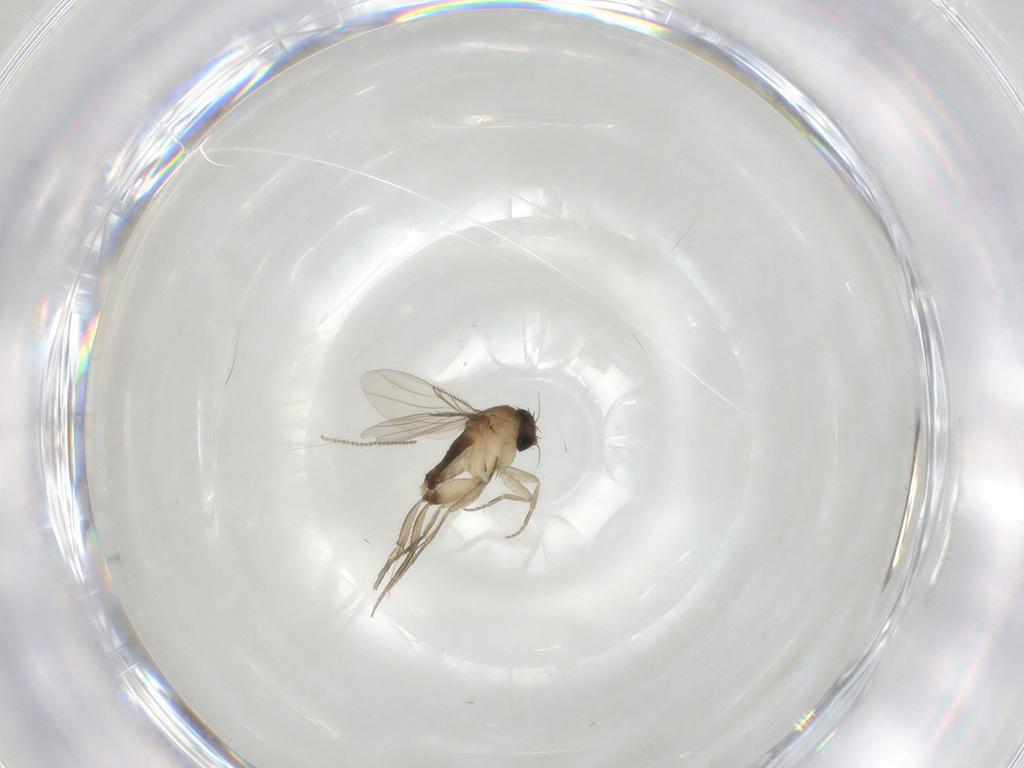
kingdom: Animalia
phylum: Arthropoda
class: Insecta
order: Diptera
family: Phoridae
